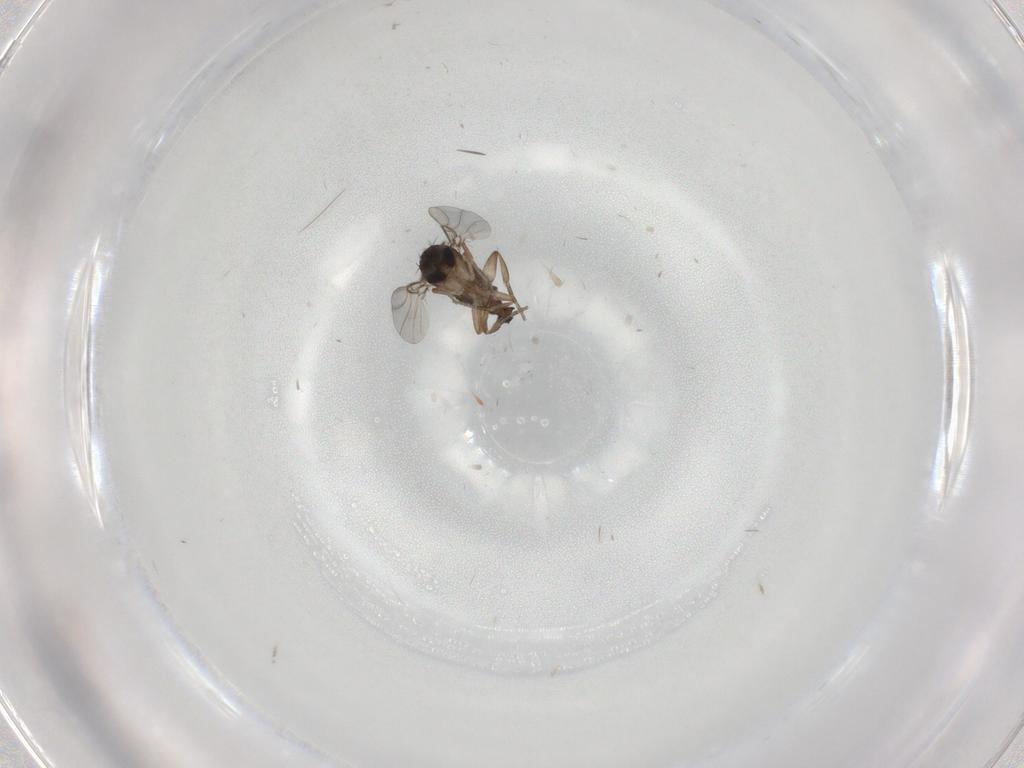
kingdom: Animalia
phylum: Arthropoda
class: Insecta
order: Diptera
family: Phoridae
